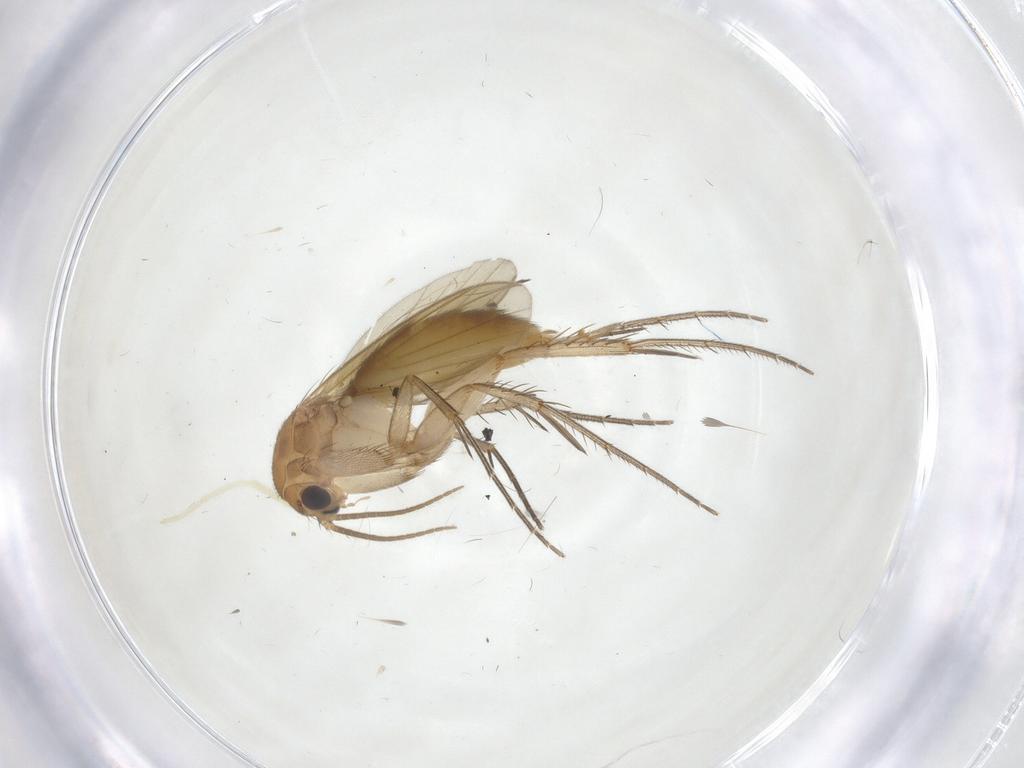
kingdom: Animalia
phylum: Arthropoda
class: Insecta
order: Diptera
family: Mycetophilidae
